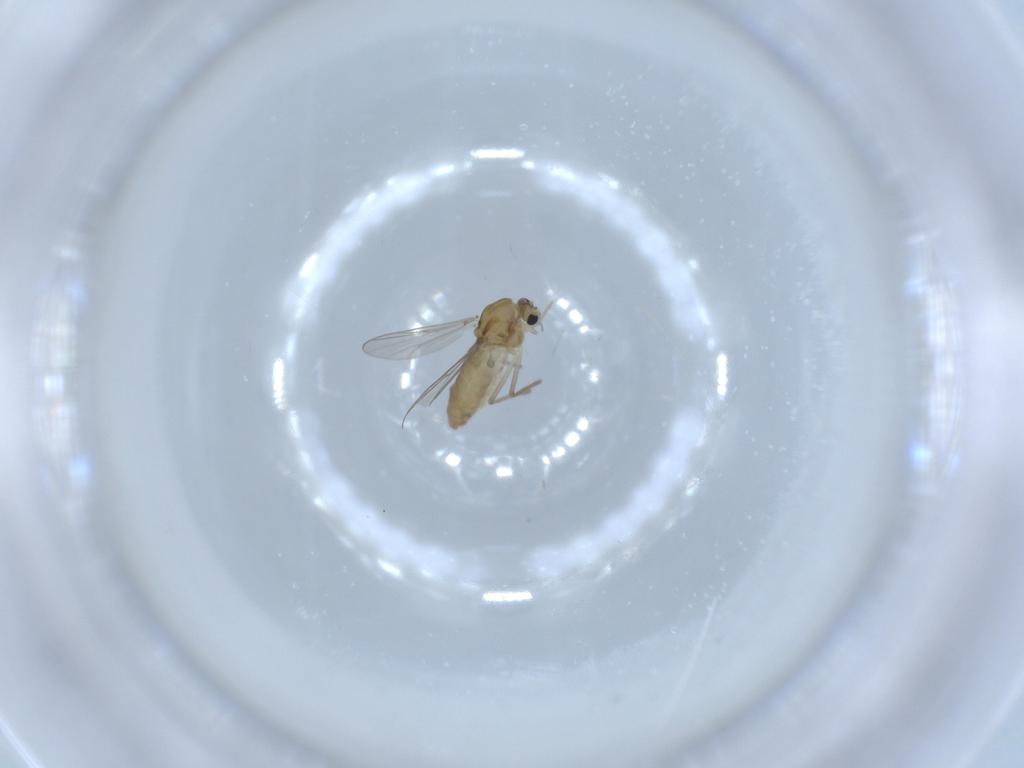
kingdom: Animalia
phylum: Arthropoda
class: Insecta
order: Diptera
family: Chironomidae
